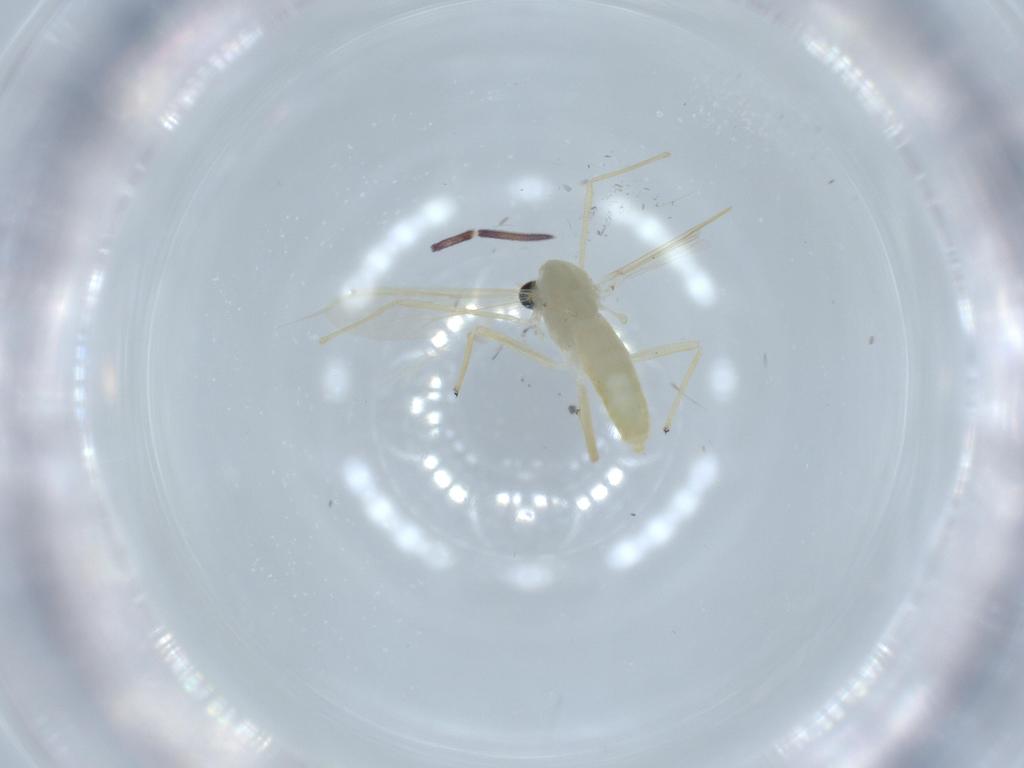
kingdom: Animalia
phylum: Arthropoda
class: Insecta
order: Diptera
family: Chironomidae
